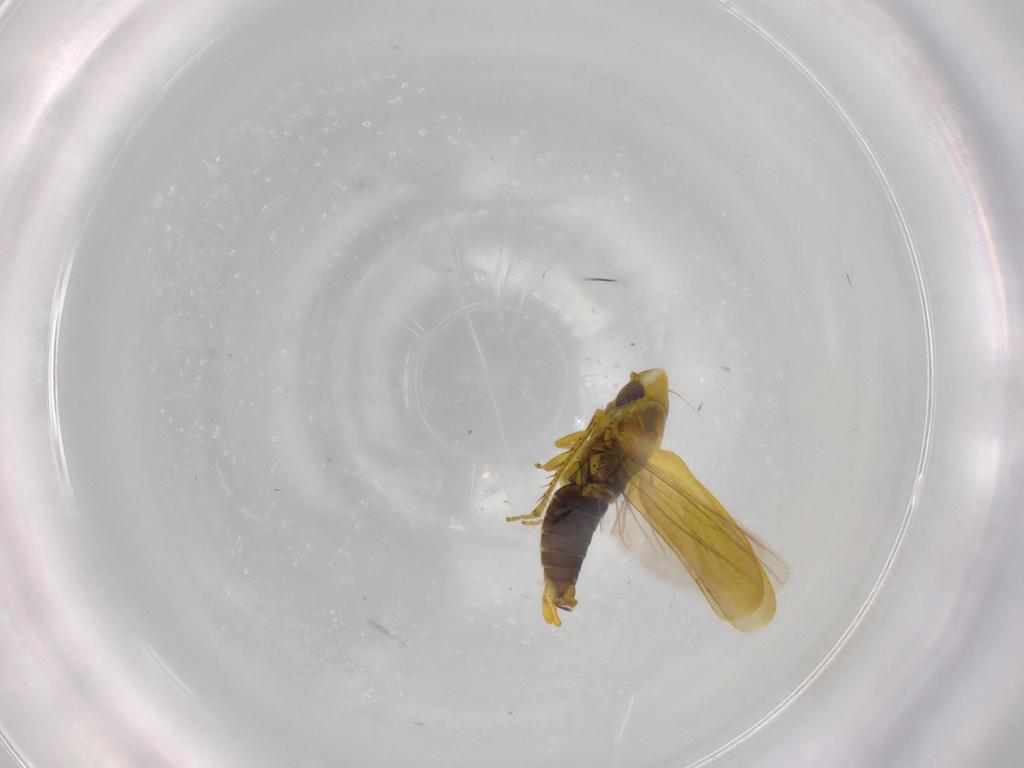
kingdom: Animalia
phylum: Arthropoda
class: Insecta
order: Hemiptera
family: Cicadellidae
